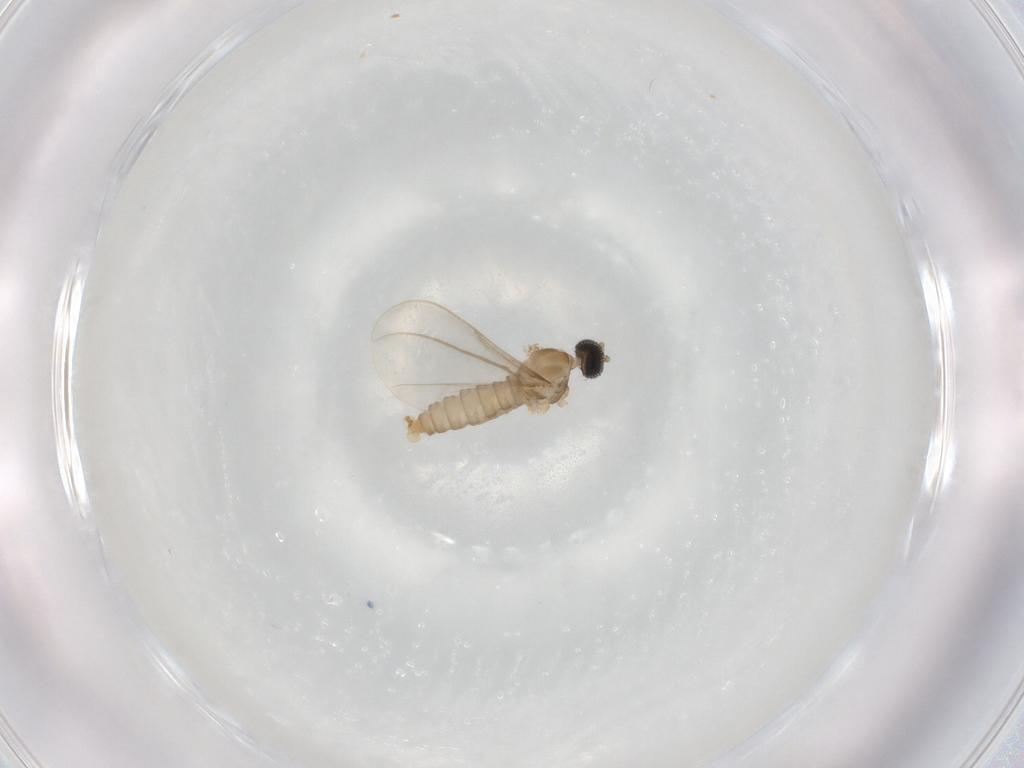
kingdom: Animalia
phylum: Arthropoda
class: Insecta
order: Diptera
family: Cecidomyiidae
